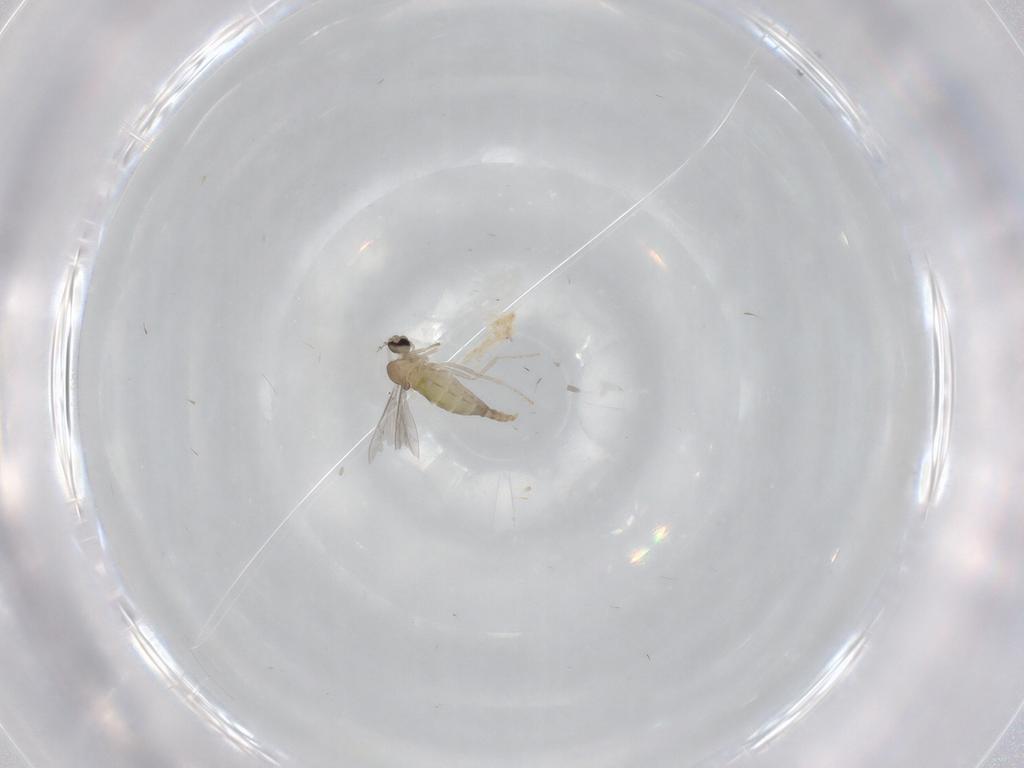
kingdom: Animalia
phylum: Arthropoda
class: Insecta
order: Diptera
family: Cecidomyiidae
